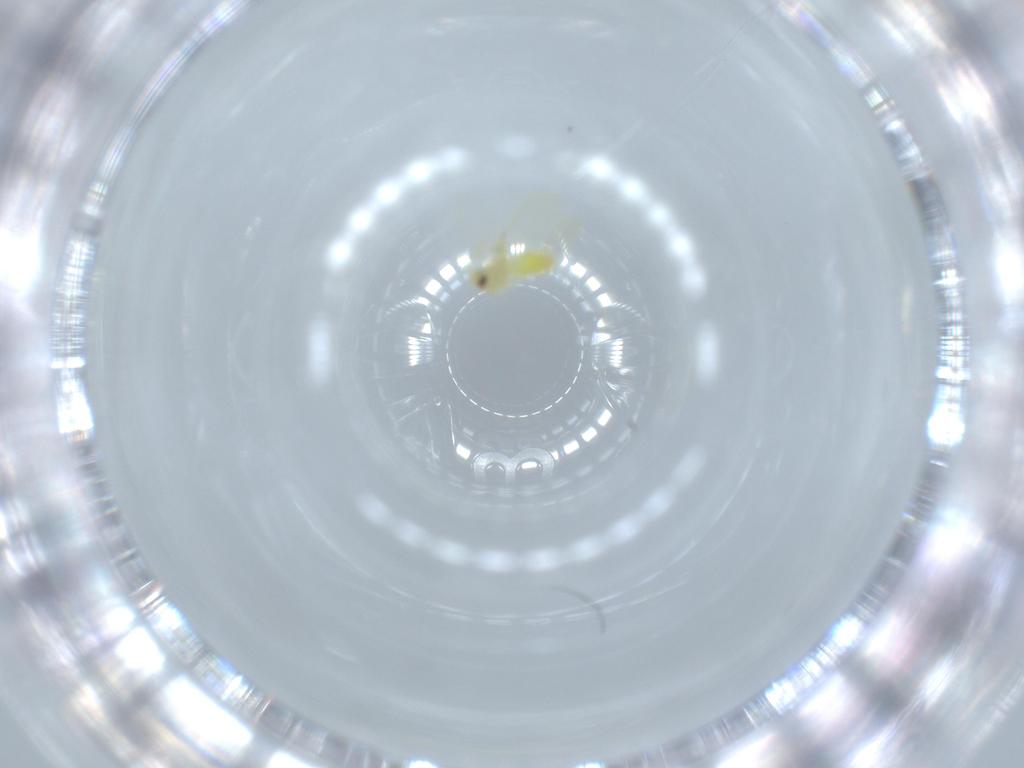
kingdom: Animalia
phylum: Arthropoda
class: Insecta
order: Hemiptera
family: Aleyrodidae
